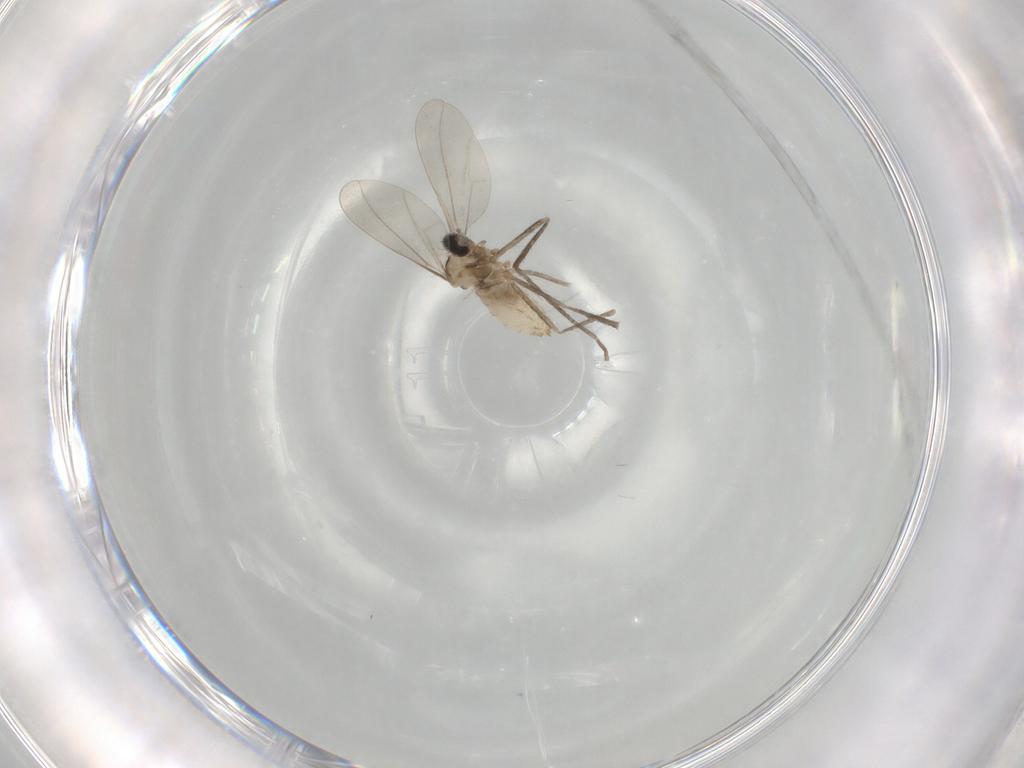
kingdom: Animalia
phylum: Arthropoda
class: Insecta
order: Diptera
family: Cecidomyiidae
